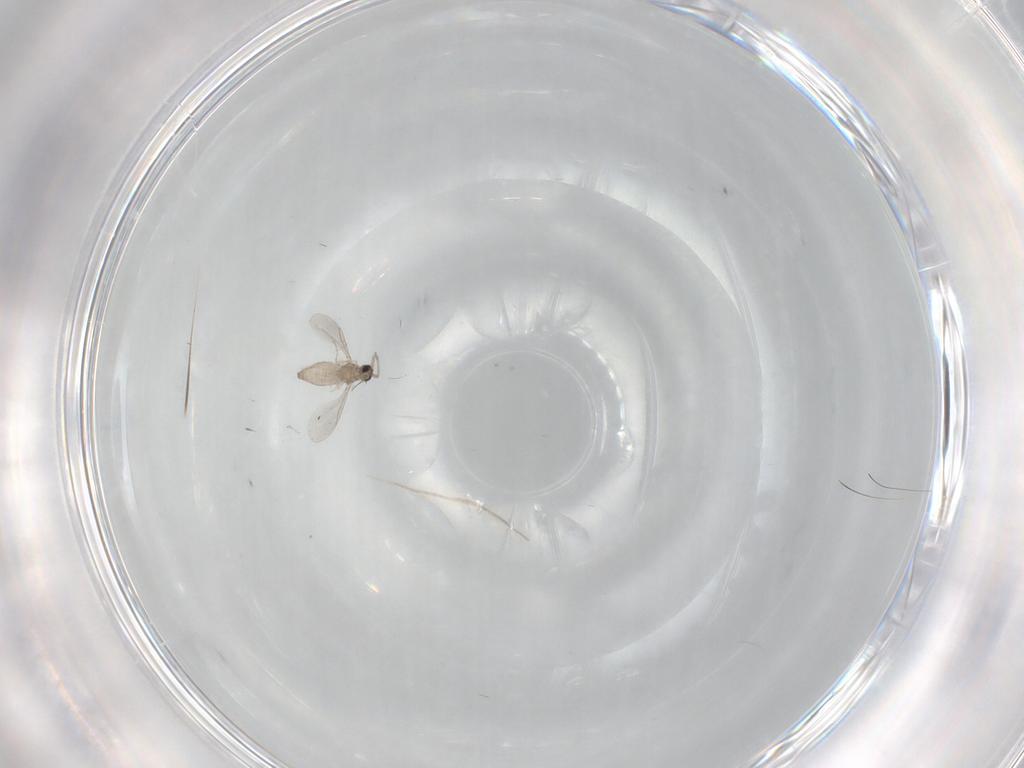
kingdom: Animalia
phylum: Arthropoda
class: Insecta
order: Diptera
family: Cecidomyiidae
